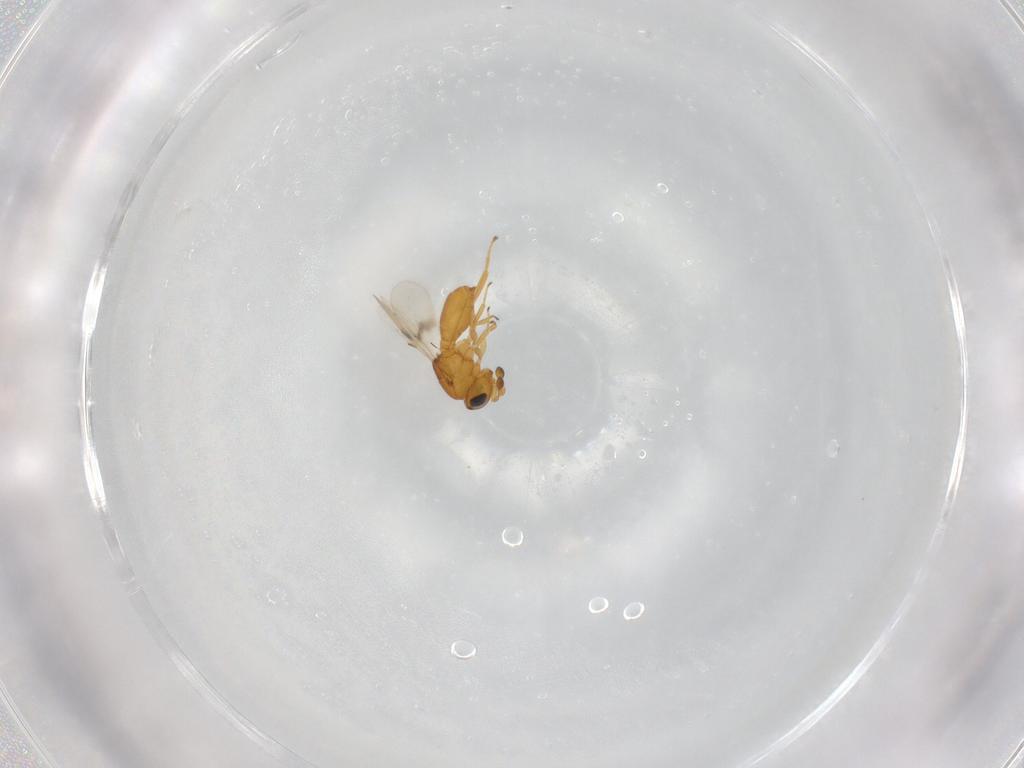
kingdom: Animalia
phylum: Arthropoda
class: Insecta
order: Hymenoptera
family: Scelionidae
